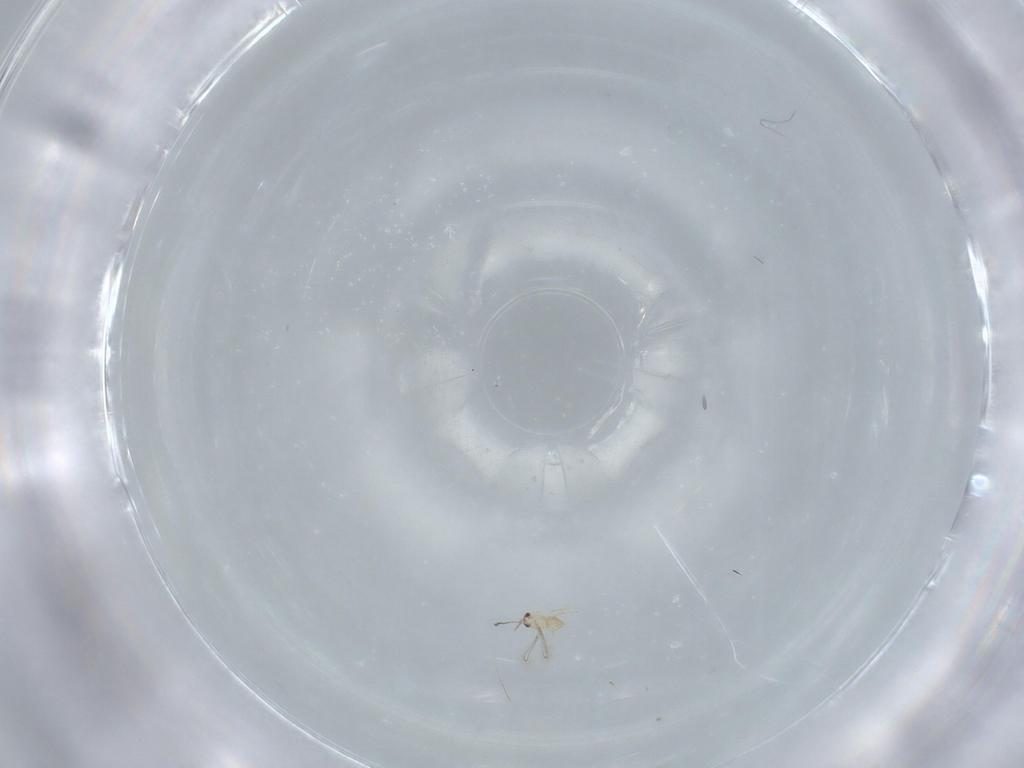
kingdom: Animalia
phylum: Arthropoda
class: Insecta
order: Hymenoptera
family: Mymaridae
